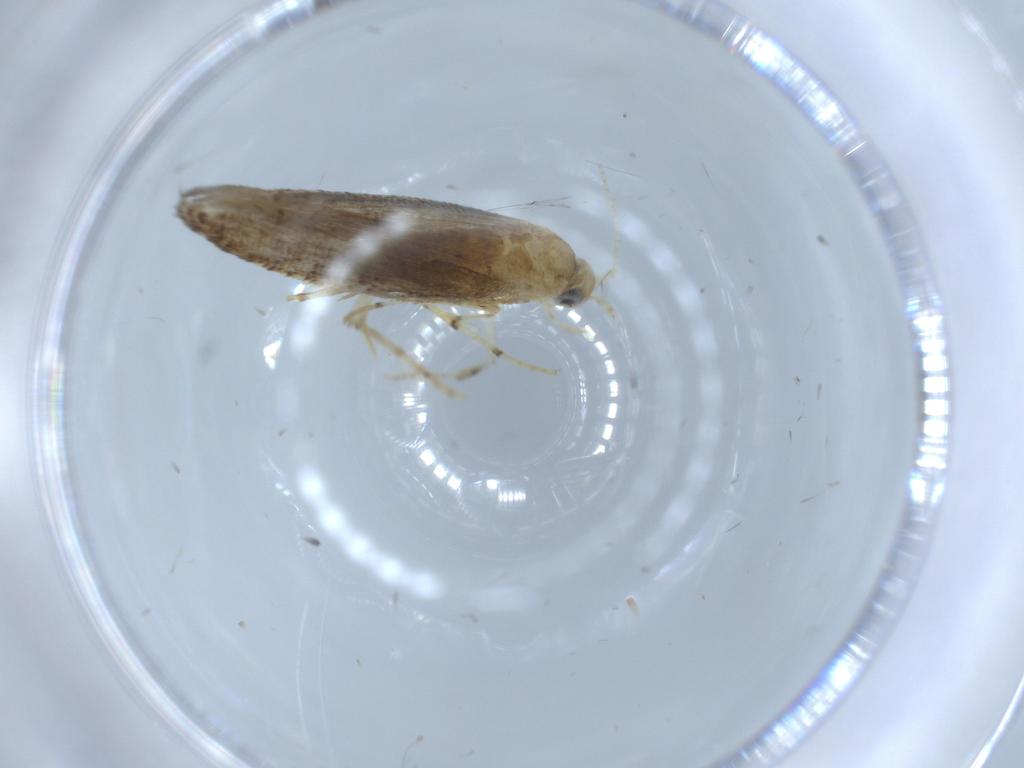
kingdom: Animalia
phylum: Arthropoda
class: Insecta
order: Lepidoptera
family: Argyresthiidae
